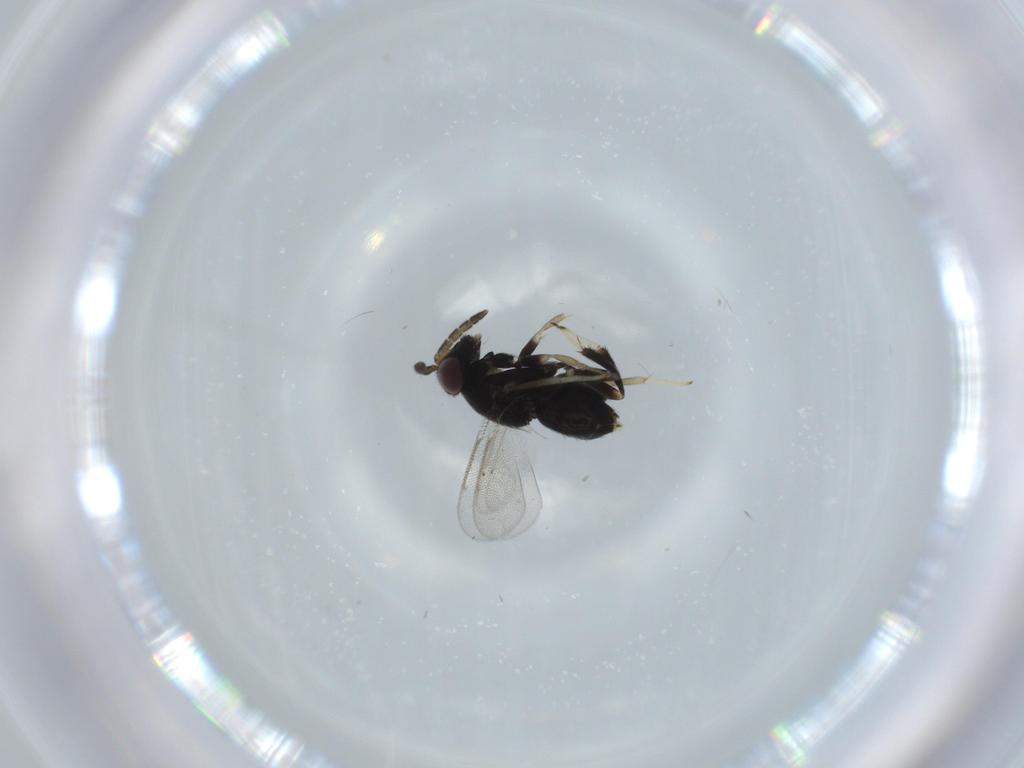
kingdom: Animalia
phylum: Arthropoda
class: Insecta
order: Hymenoptera
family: Aphelinidae
